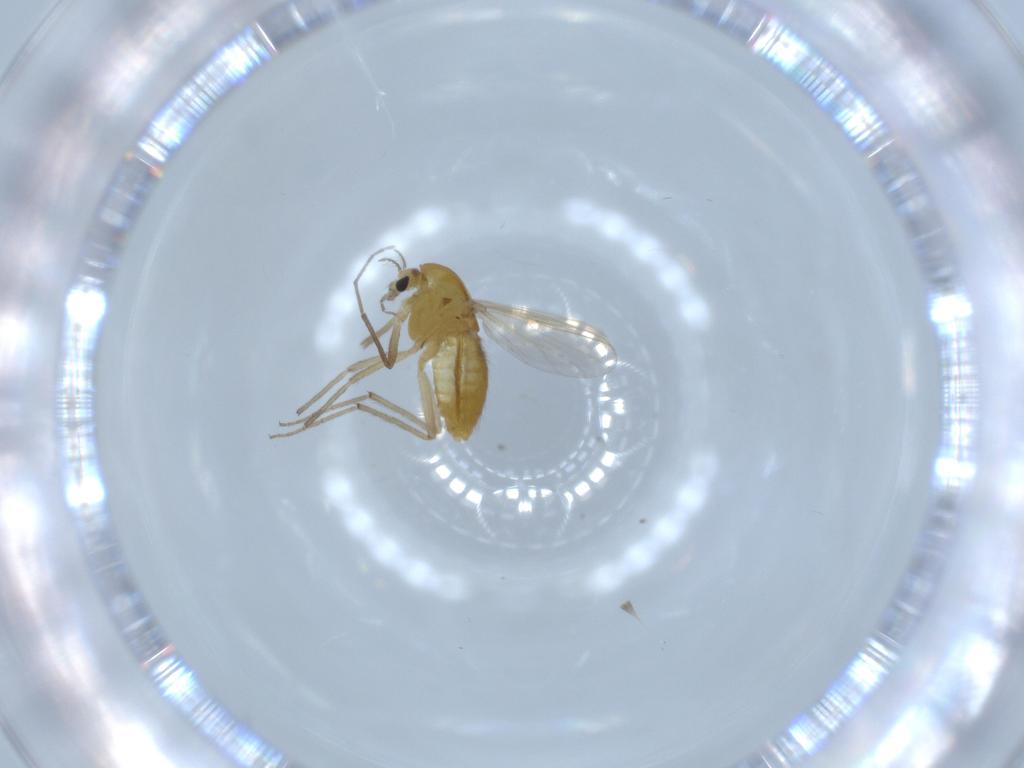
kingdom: Animalia
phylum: Arthropoda
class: Insecta
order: Diptera
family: Chironomidae
